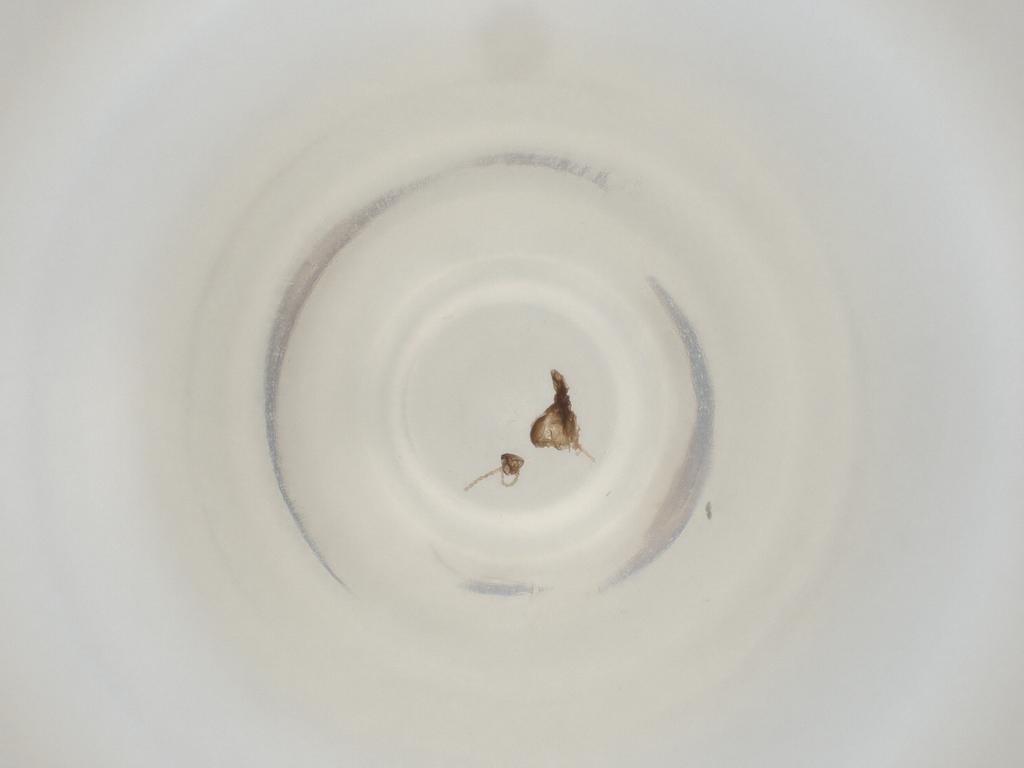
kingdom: Animalia
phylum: Arthropoda
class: Insecta
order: Diptera
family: Cecidomyiidae
